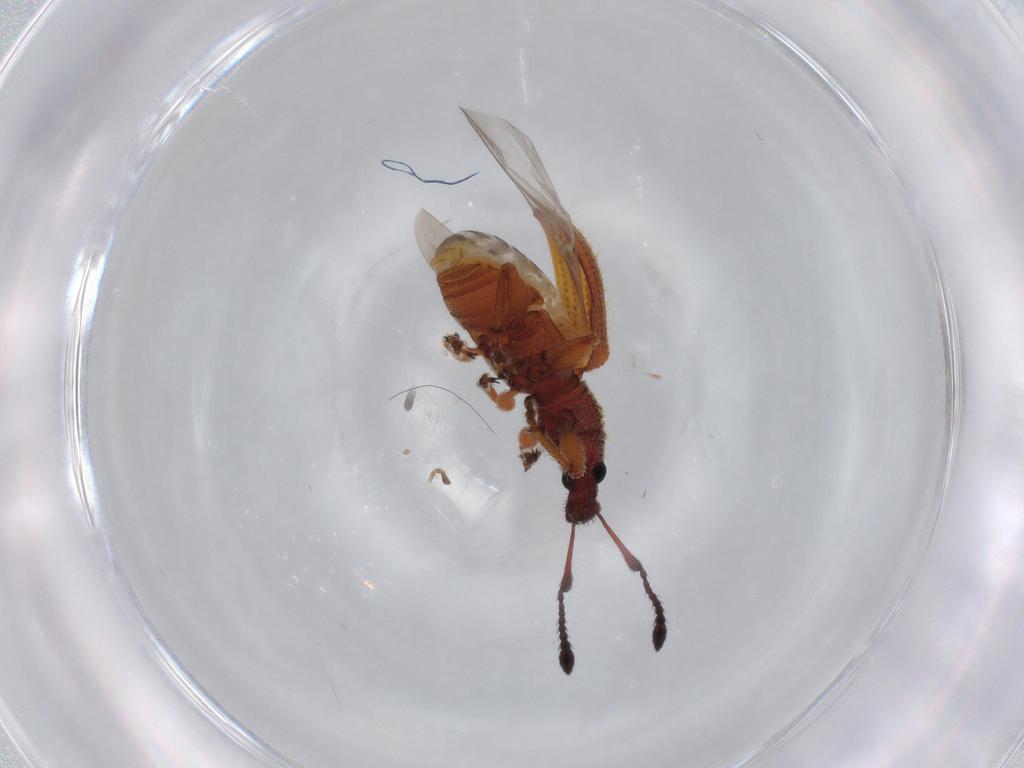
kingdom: Animalia
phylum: Arthropoda
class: Insecta
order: Coleoptera
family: Curculionidae
